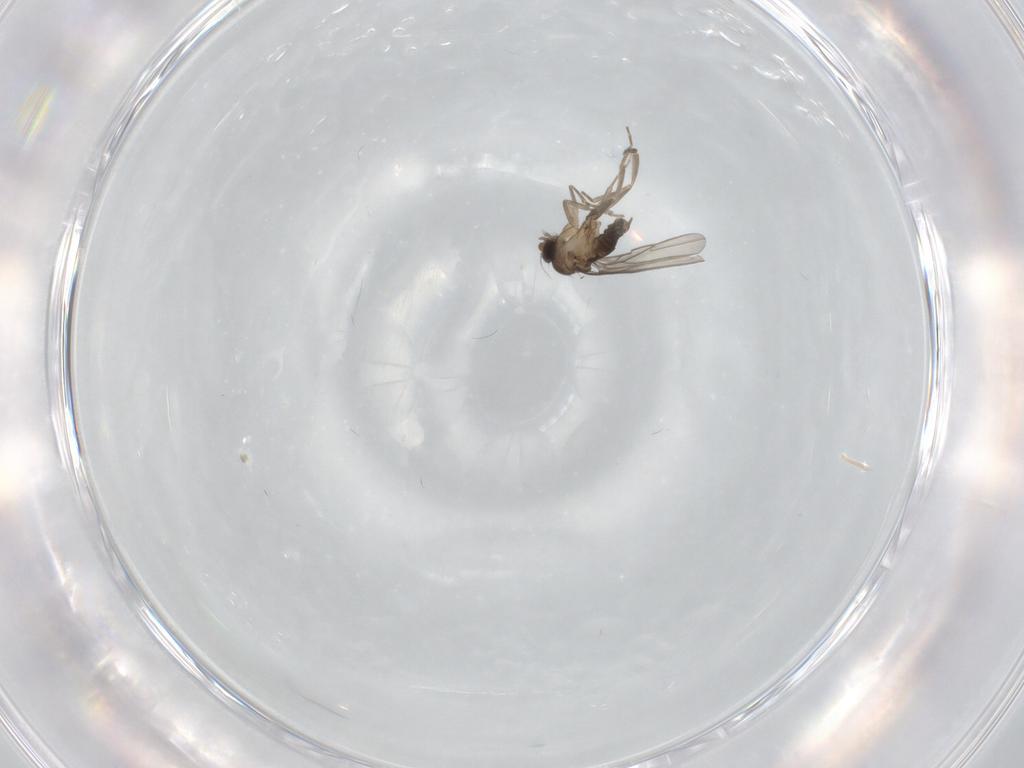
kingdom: Animalia
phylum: Arthropoda
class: Insecta
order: Diptera
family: Phoridae
